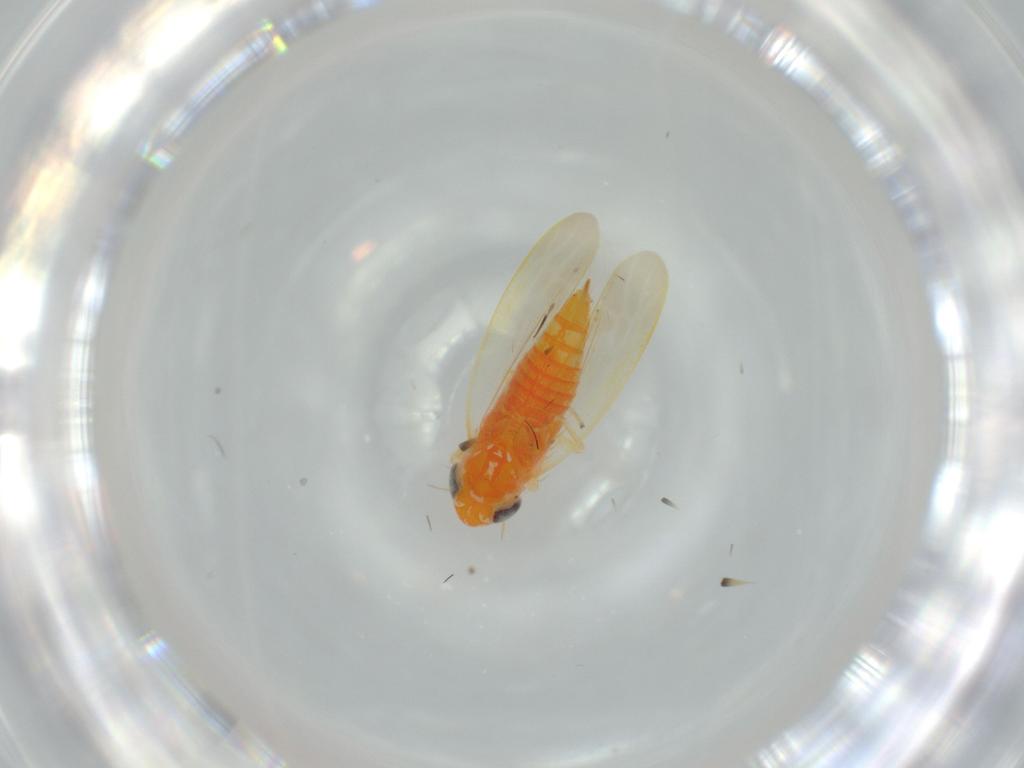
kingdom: Animalia
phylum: Arthropoda
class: Insecta
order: Hemiptera
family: Cicadellidae
